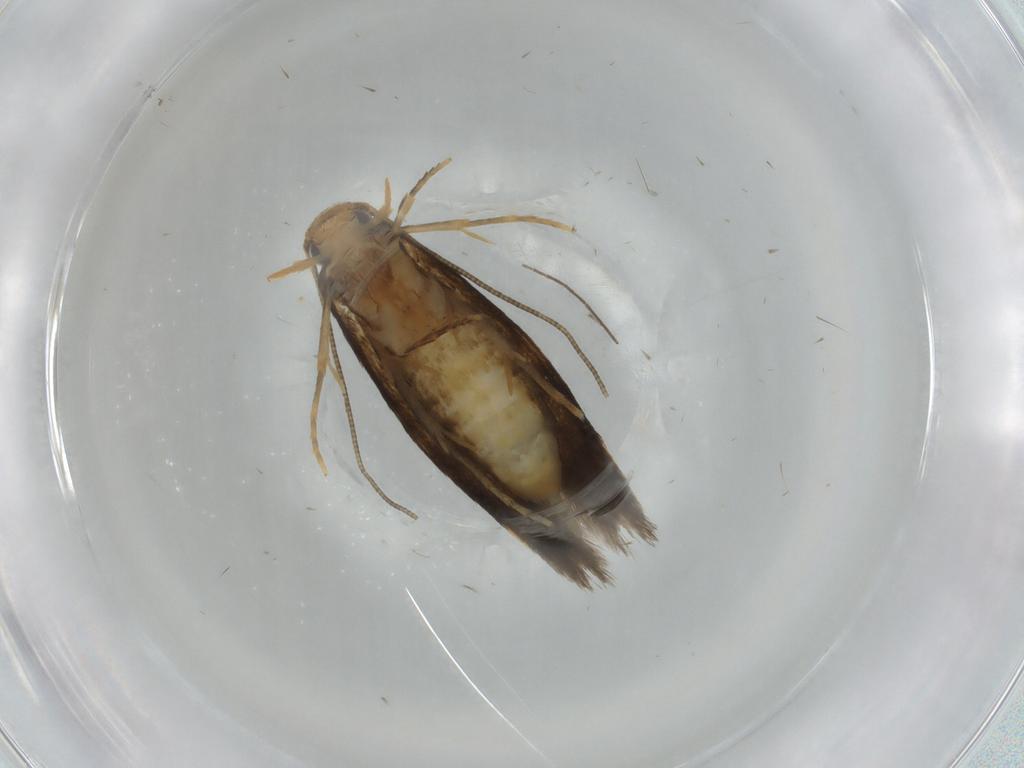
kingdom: Animalia
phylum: Arthropoda
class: Insecta
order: Lepidoptera
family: Tineidae
